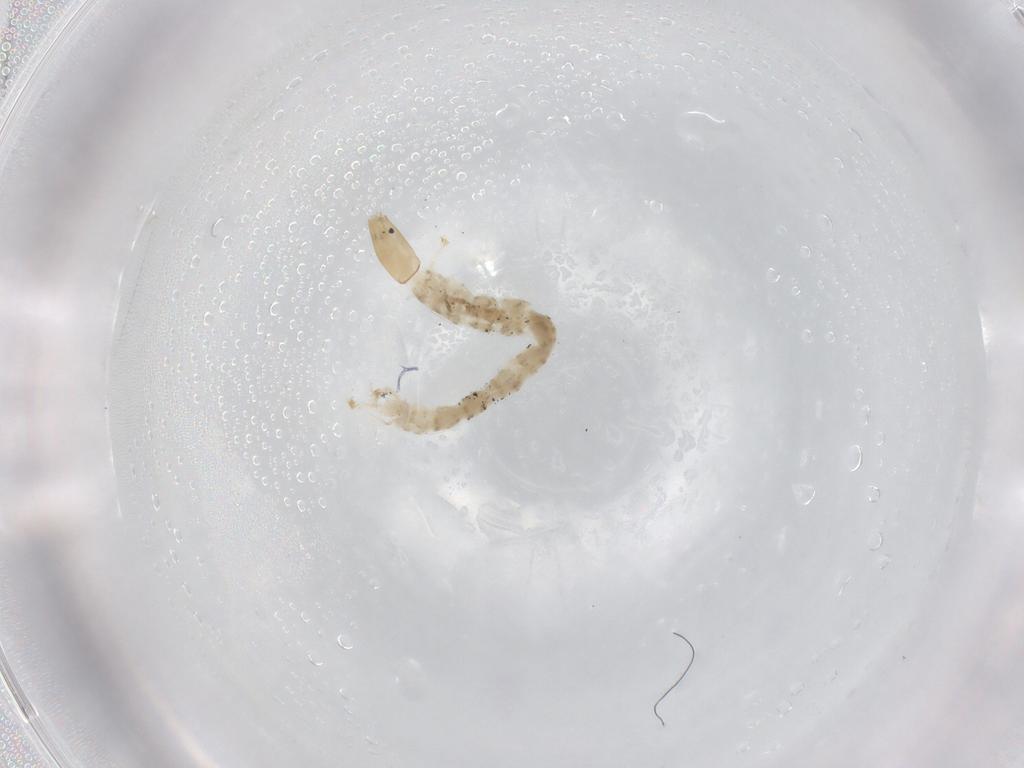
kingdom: Animalia
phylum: Arthropoda
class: Insecta
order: Diptera
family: Chironomidae
